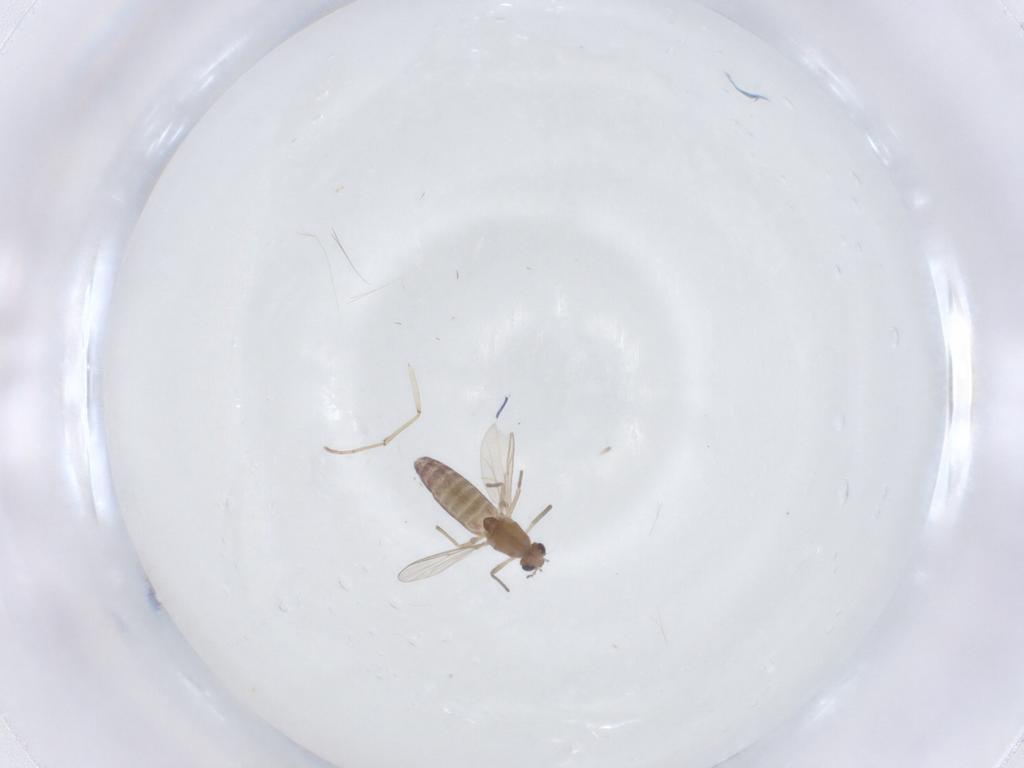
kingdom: Animalia
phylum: Arthropoda
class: Insecta
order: Diptera
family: Chironomidae
